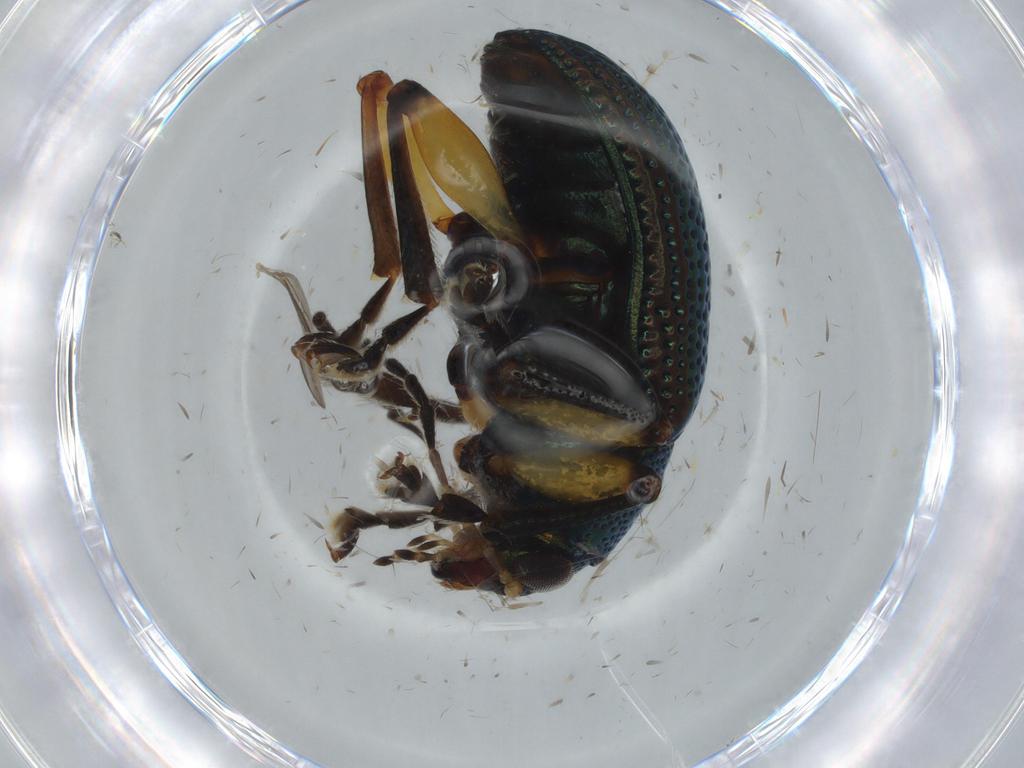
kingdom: Animalia
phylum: Arthropoda
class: Insecta
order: Coleoptera
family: Chrysomelidae
